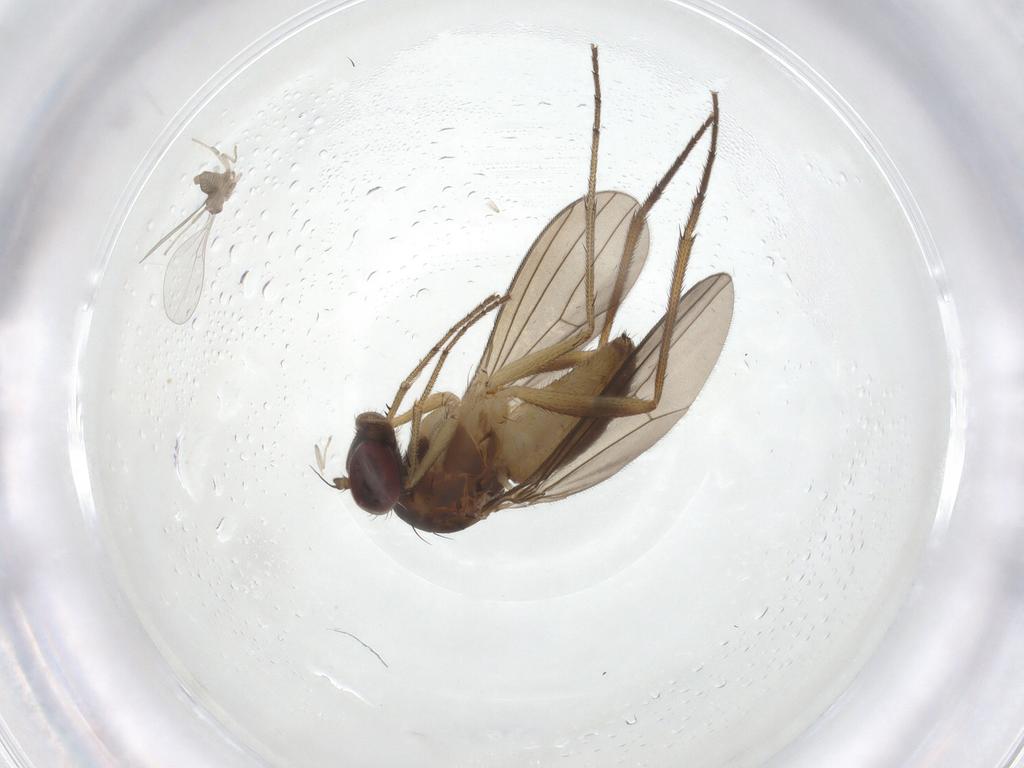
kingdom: Animalia
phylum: Arthropoda
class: Insecta
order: Diptera
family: Cecidomyiidae
